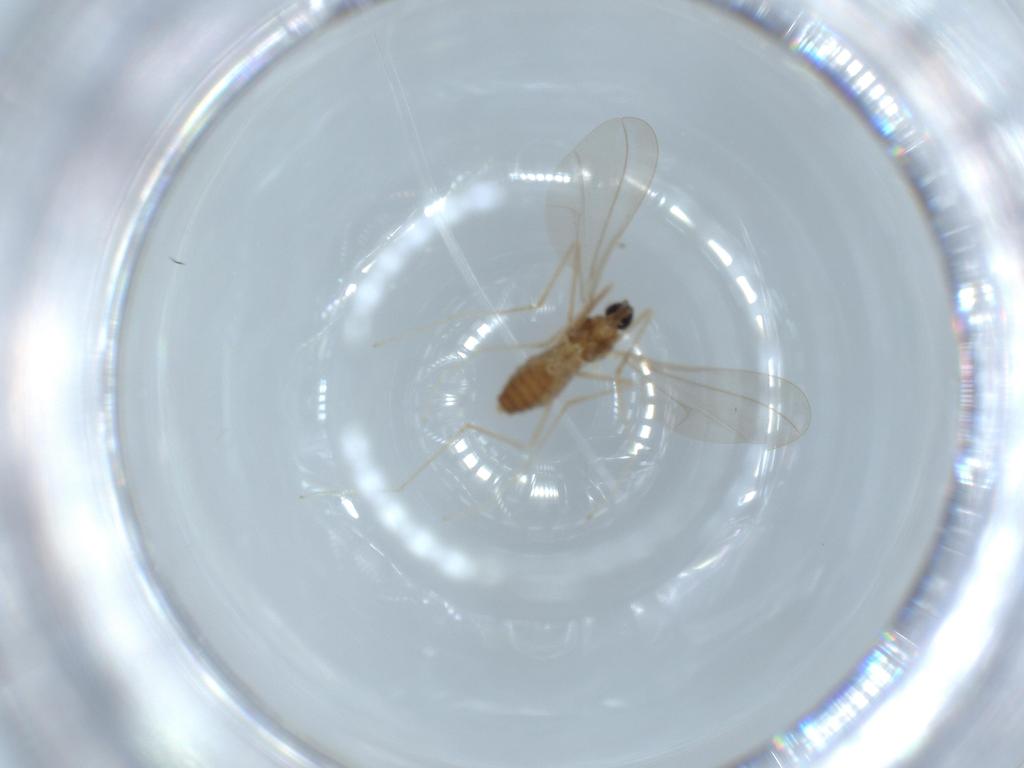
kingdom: Animalia
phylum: Arthropoda
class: Insecta
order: Diptera
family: Cecidomyiidae
